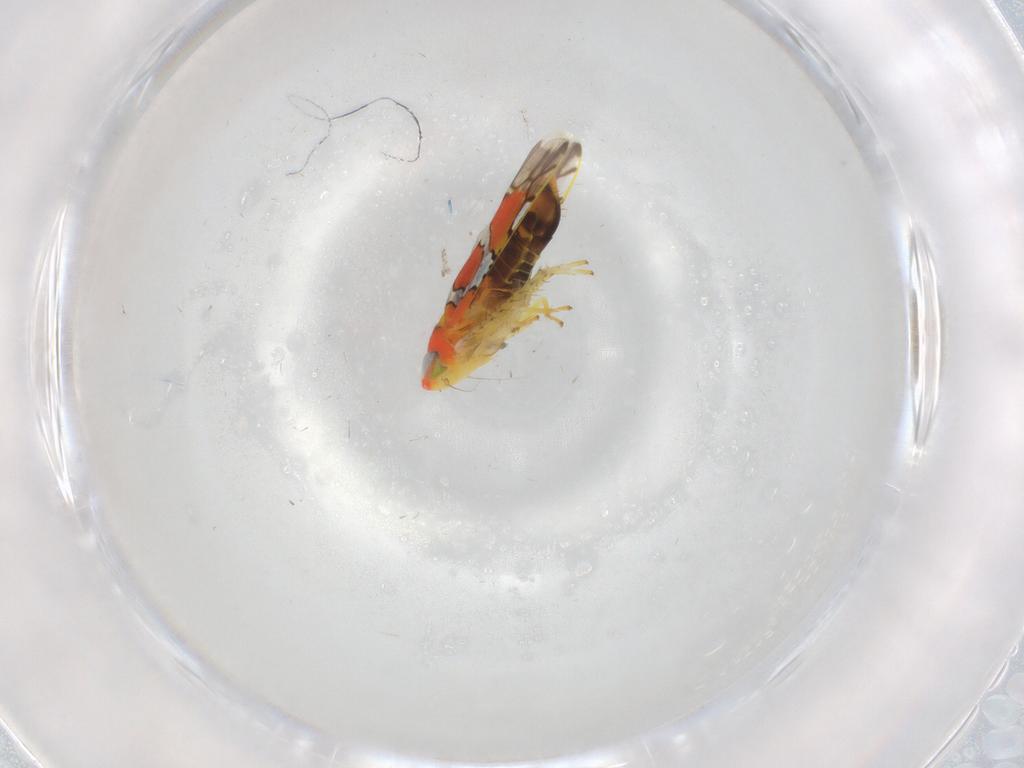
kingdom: Animalia
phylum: Arthropoda
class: Insecta
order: Hemiptera
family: Cicadellidae
